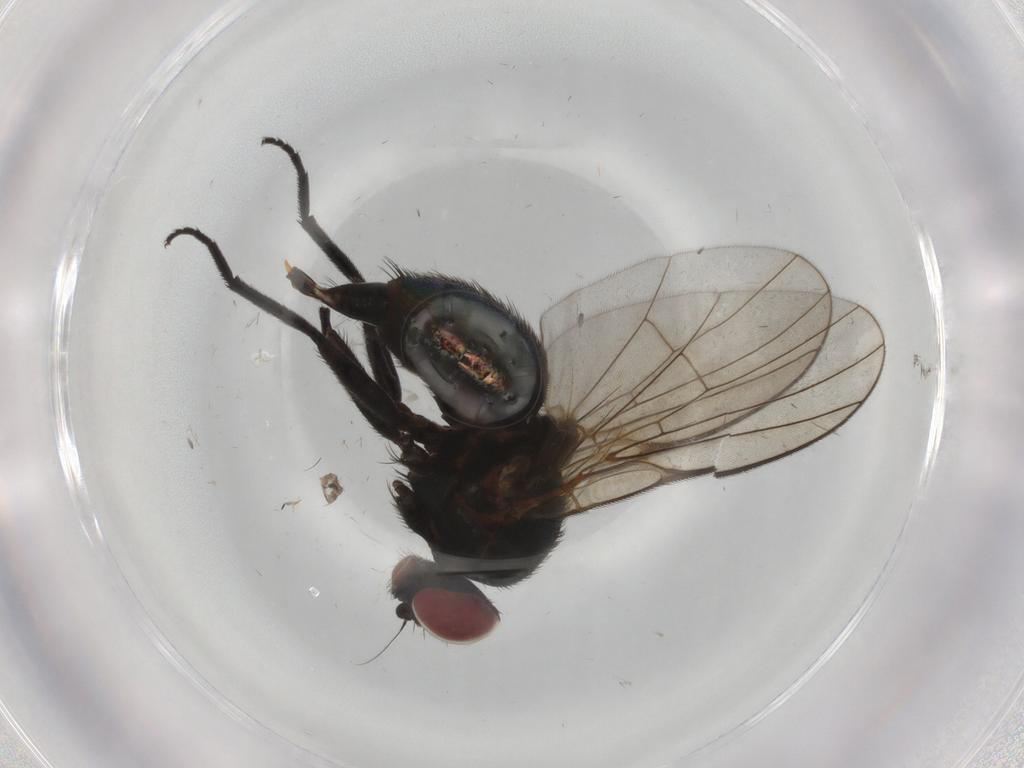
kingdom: Animalia
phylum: Arthropoda
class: Insecta
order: Diptera
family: Agromyzidae
